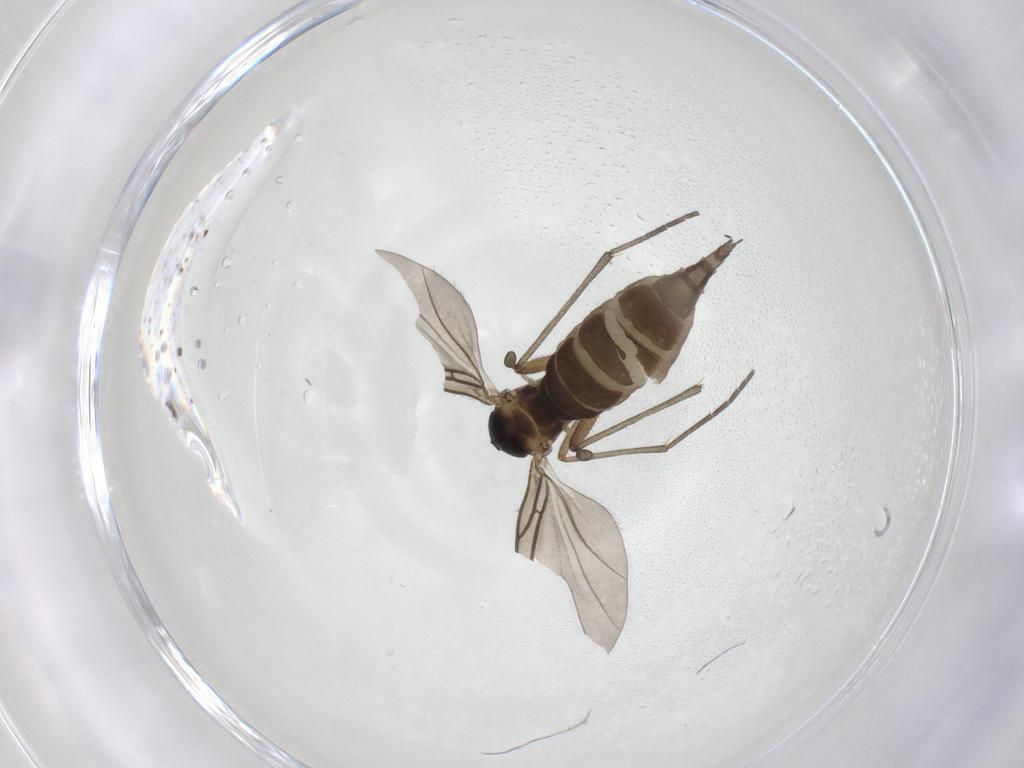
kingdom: Animalia
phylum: Arthropoda
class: Insecta
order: Diptera
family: Sciaridae
